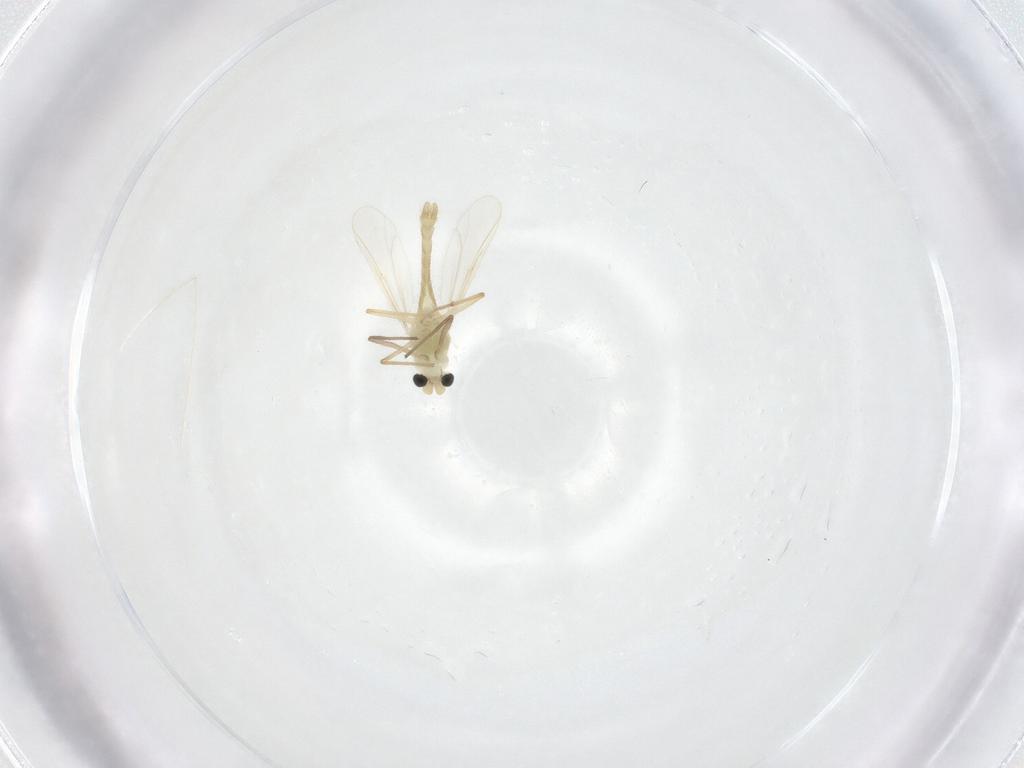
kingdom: Animalia
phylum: Arthropoda
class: Insecta
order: Diptera
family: Chironomidae
